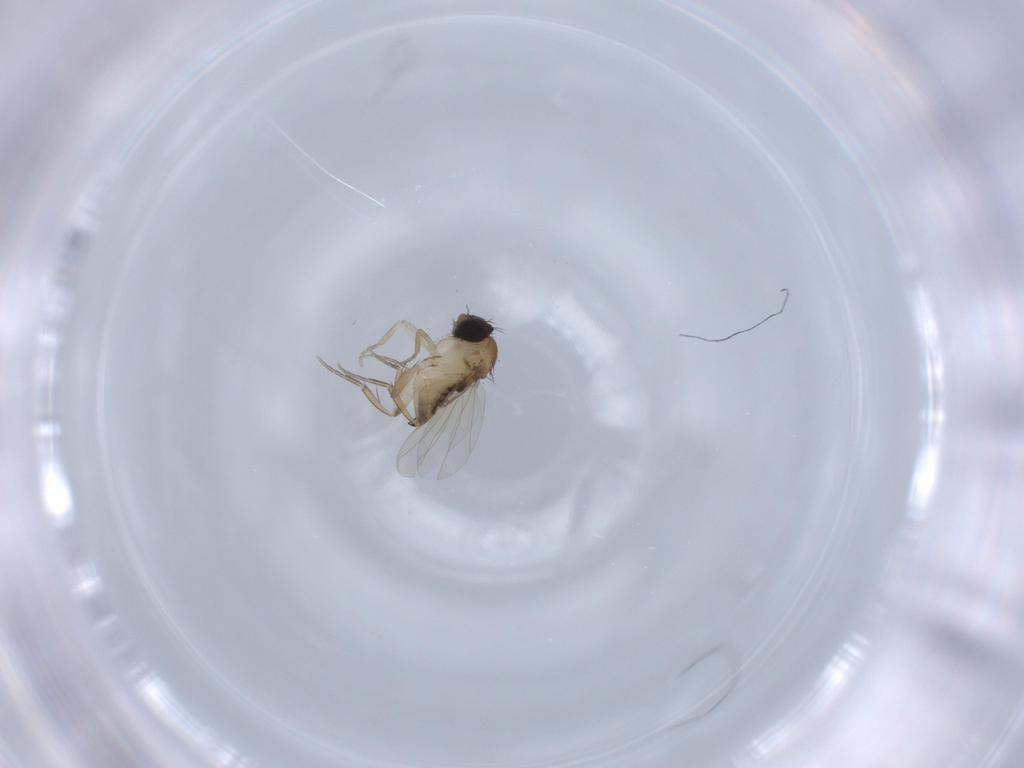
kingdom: Animalia
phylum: Arthropoda
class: Insecta
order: Diptera
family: Phoridae
